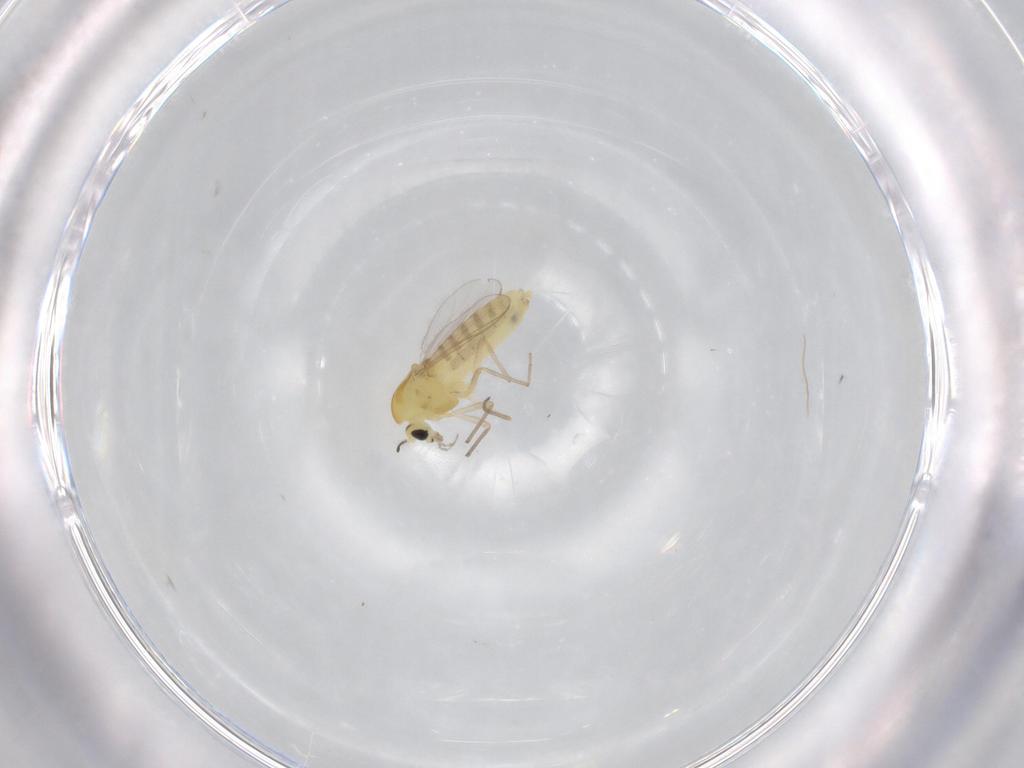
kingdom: Animalia
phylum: Arthropoda
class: Insecta
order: Diptera
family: Chironomidae
